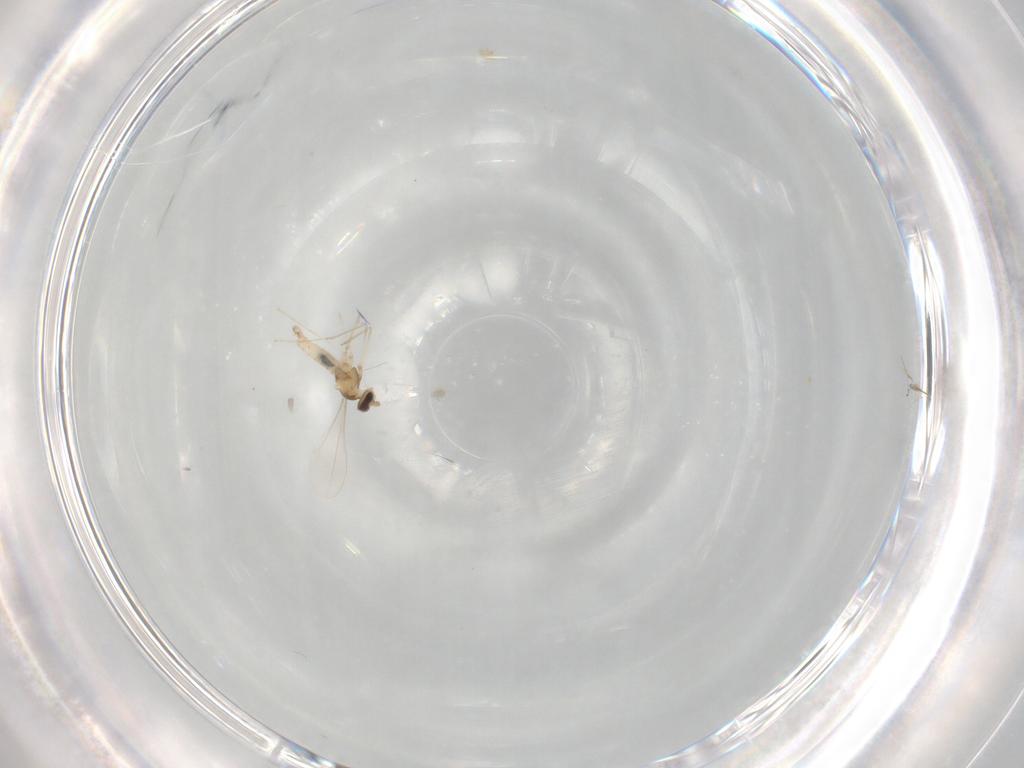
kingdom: Animalia
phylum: Arthropoda
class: Insecta
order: Diptera
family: Cecidomyiidae
